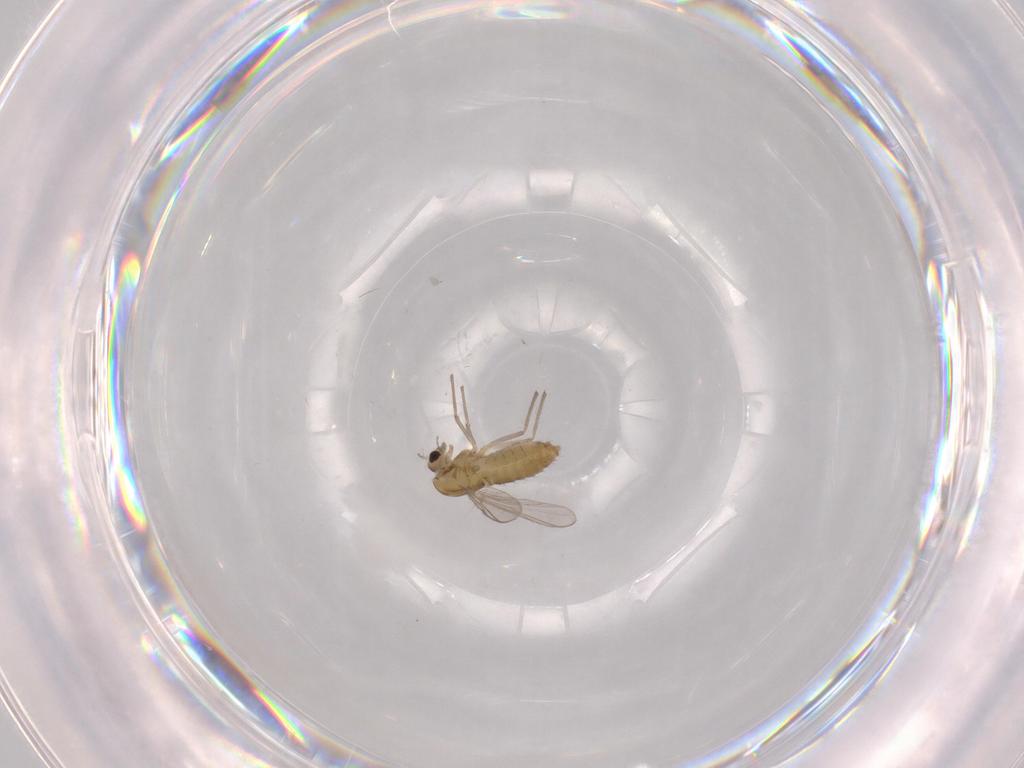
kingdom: Animalia
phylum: Arthropoda
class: Insecta
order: Diptera
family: Chironomidae
